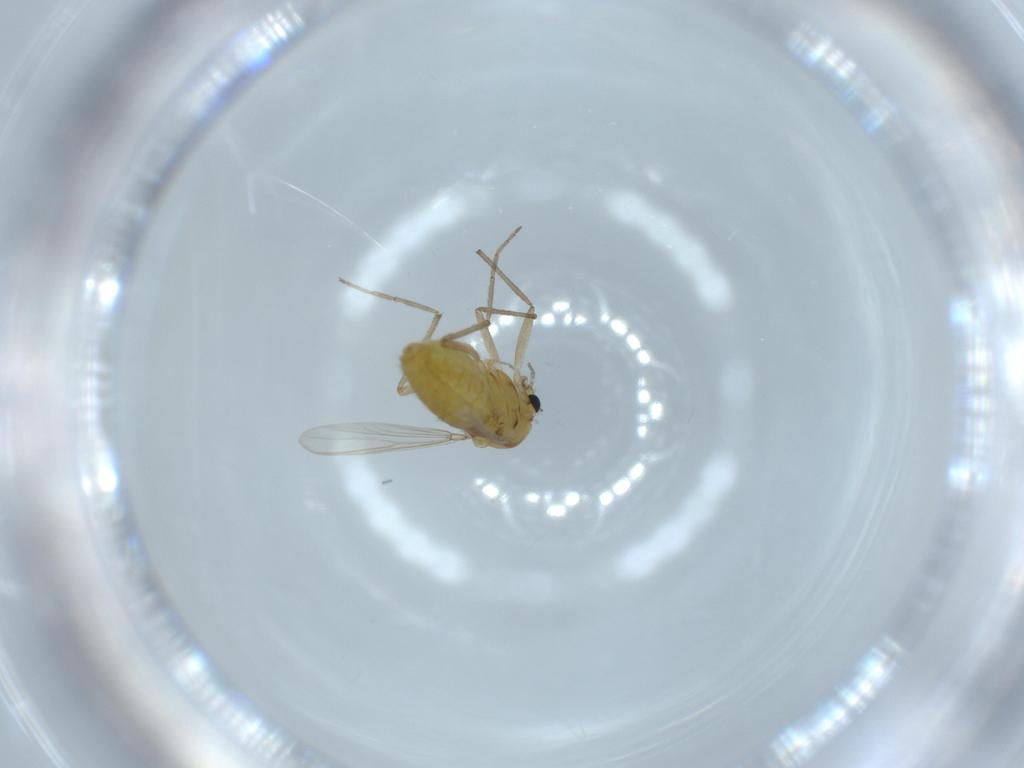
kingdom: Animalia
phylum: Arthropoda
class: Insecta
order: Diptera
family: Chironomidae
